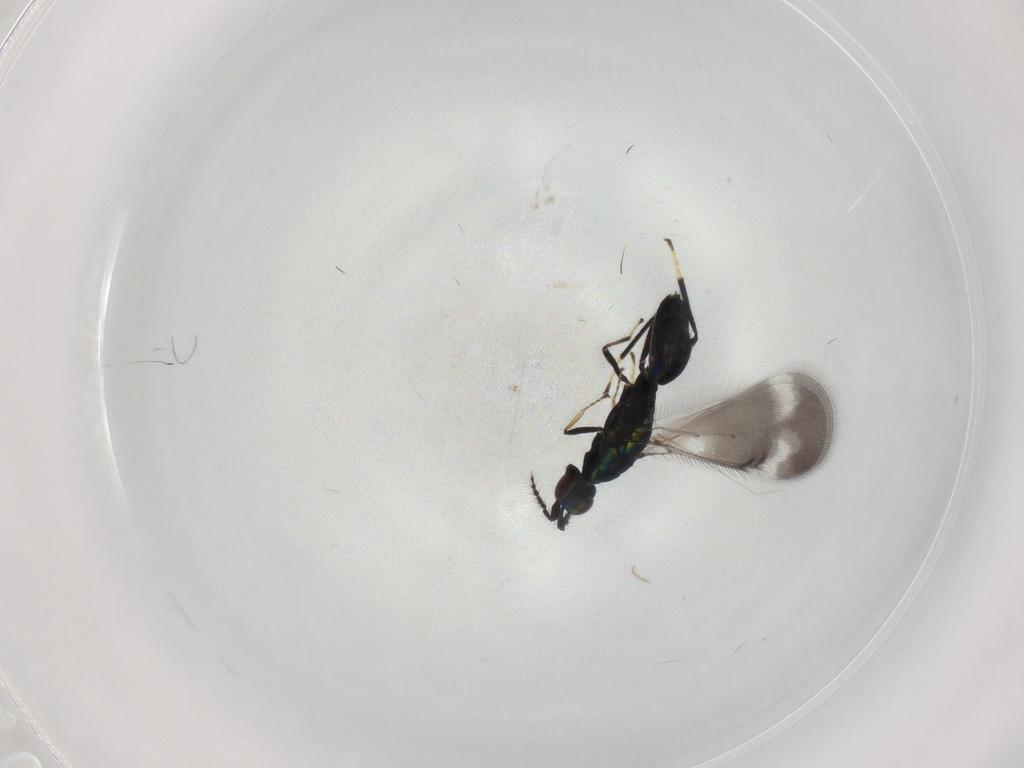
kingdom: Animalia
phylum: Arthropoda
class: Insecta
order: Hymenoptera
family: Eulophidae
